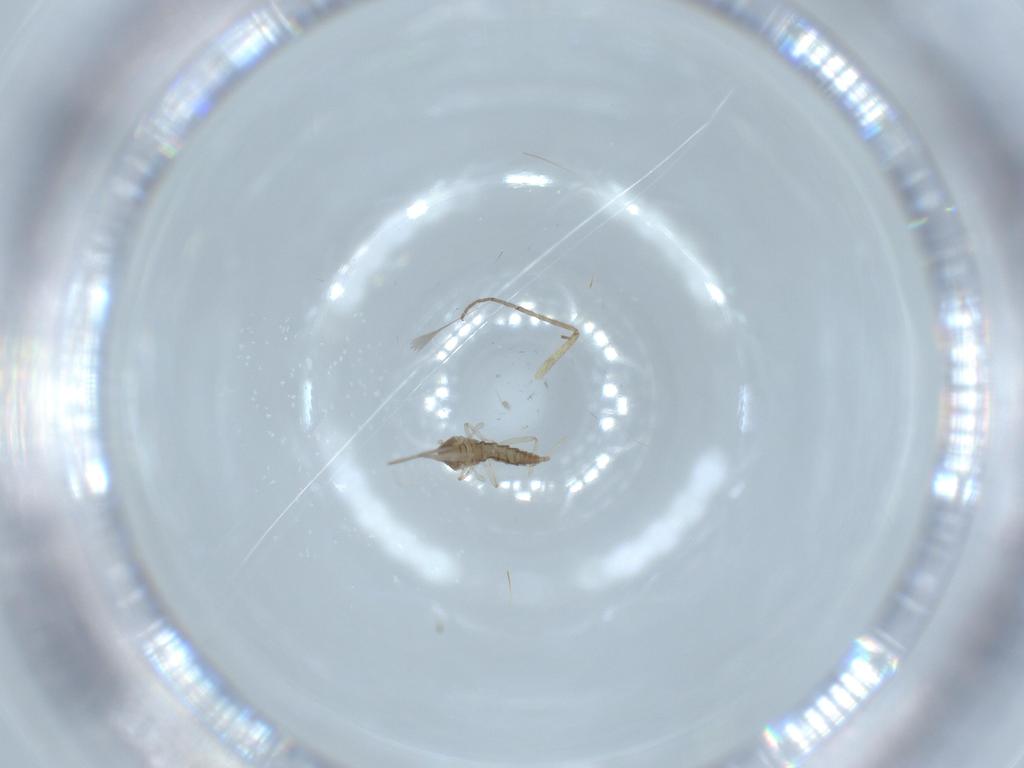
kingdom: Animalia
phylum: Arthropoda
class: Insecta
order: Diptera
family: Cecidomyiidae
